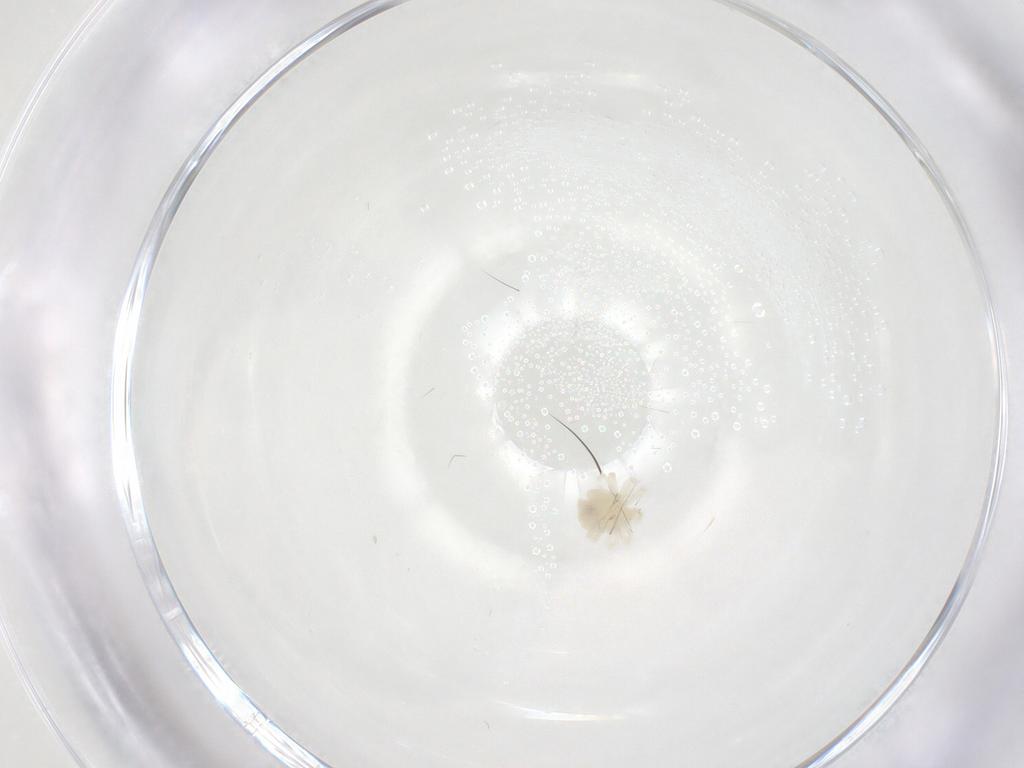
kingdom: Animalia
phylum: Arthropoda
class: Arachnida
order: Trombidiformes
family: Anystidae
